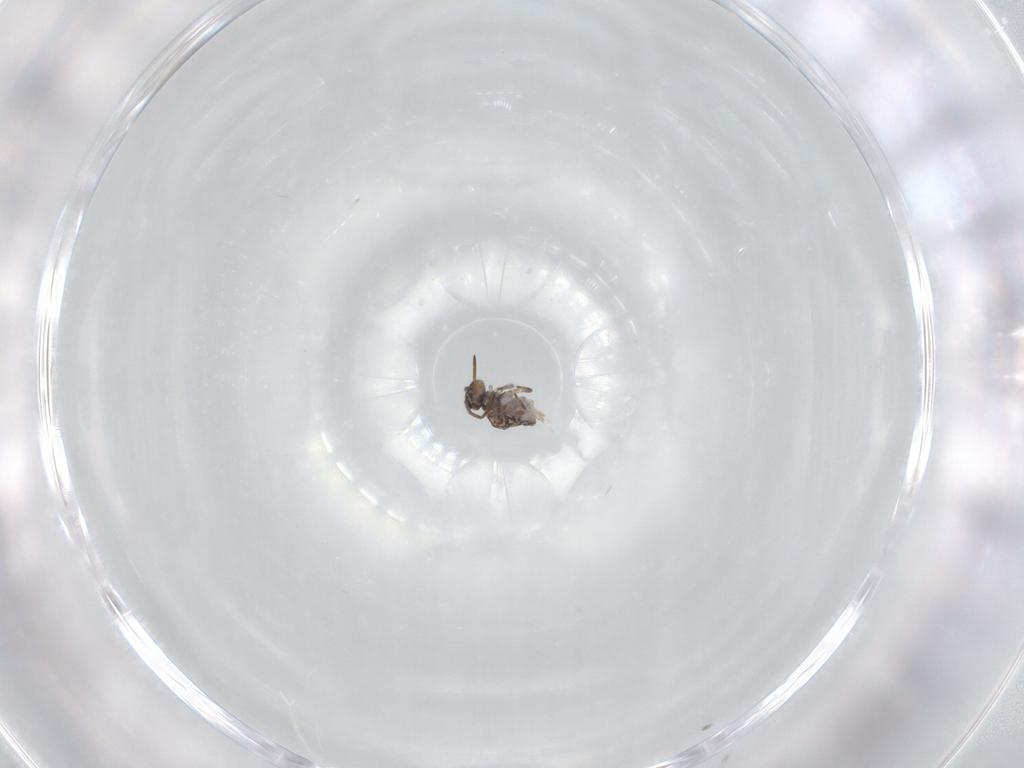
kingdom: Animalia
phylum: Arthropoda
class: Collembola
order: Symphypleona
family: Katiannidae
